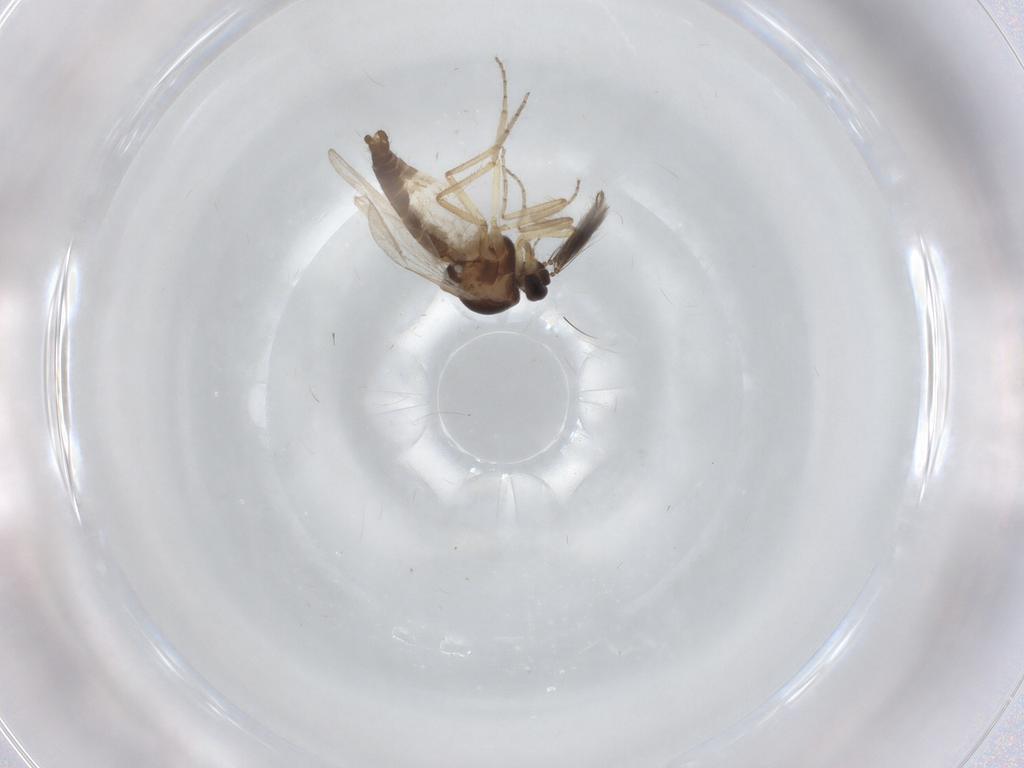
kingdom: Animalia
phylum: Arthropoda
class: Insecta
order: Diptera
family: Ceratopogonidae
